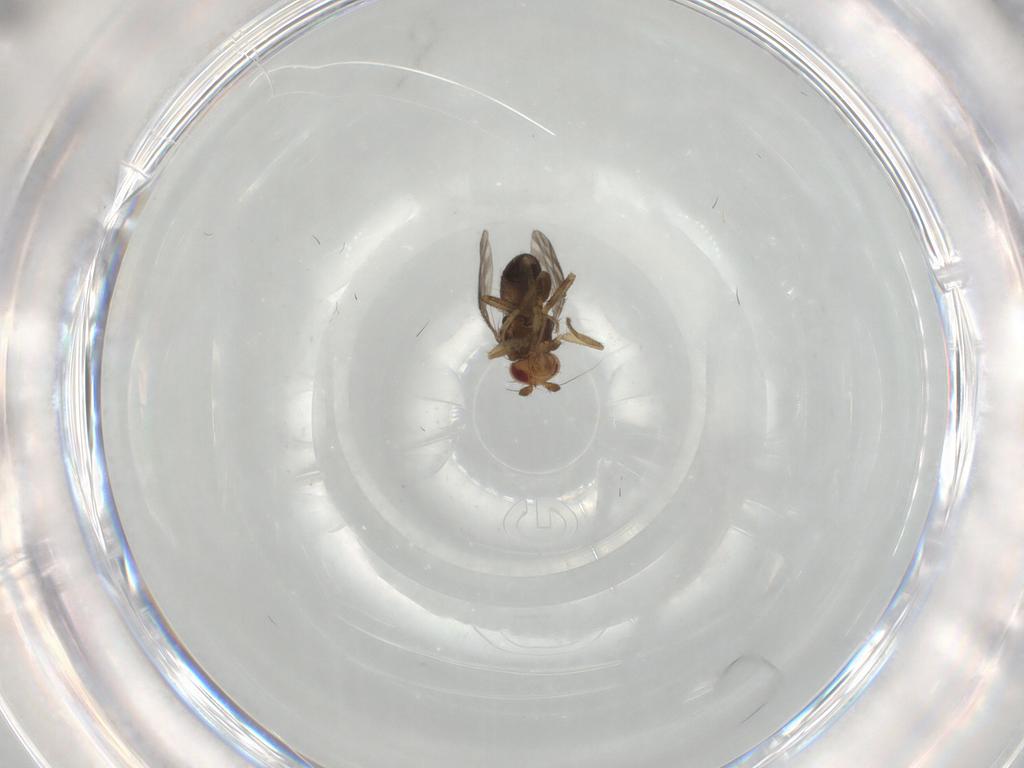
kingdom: Animalia
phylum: Arthropoda
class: Insecta
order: Diptera
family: Sphaeroceridae
